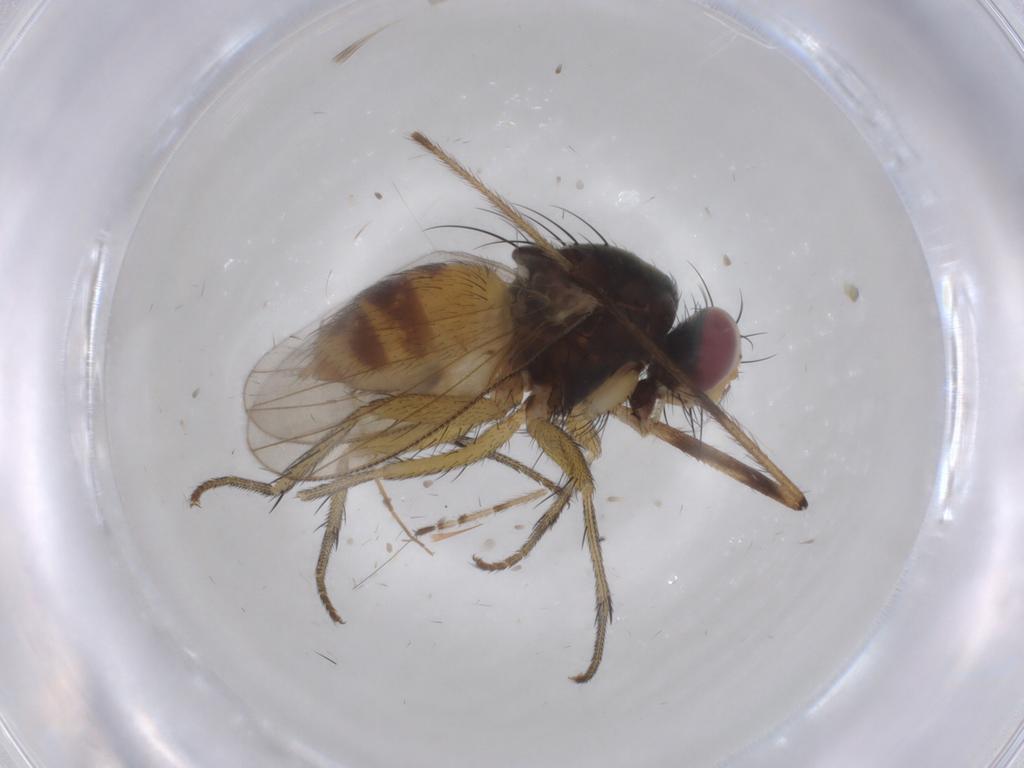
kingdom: Animalia
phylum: Arthropoda
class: Insecta
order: Diptera
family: Muscidae
